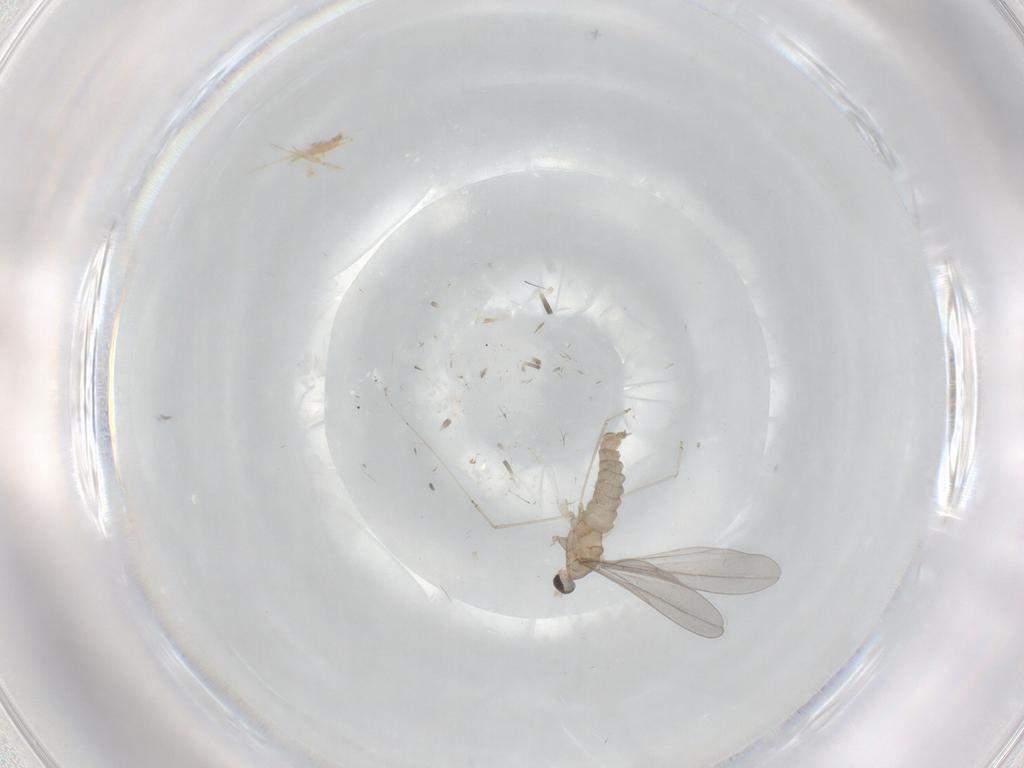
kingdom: Animalia
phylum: Arthropoda
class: Insecta
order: Diptera
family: Cecidomyiidae
